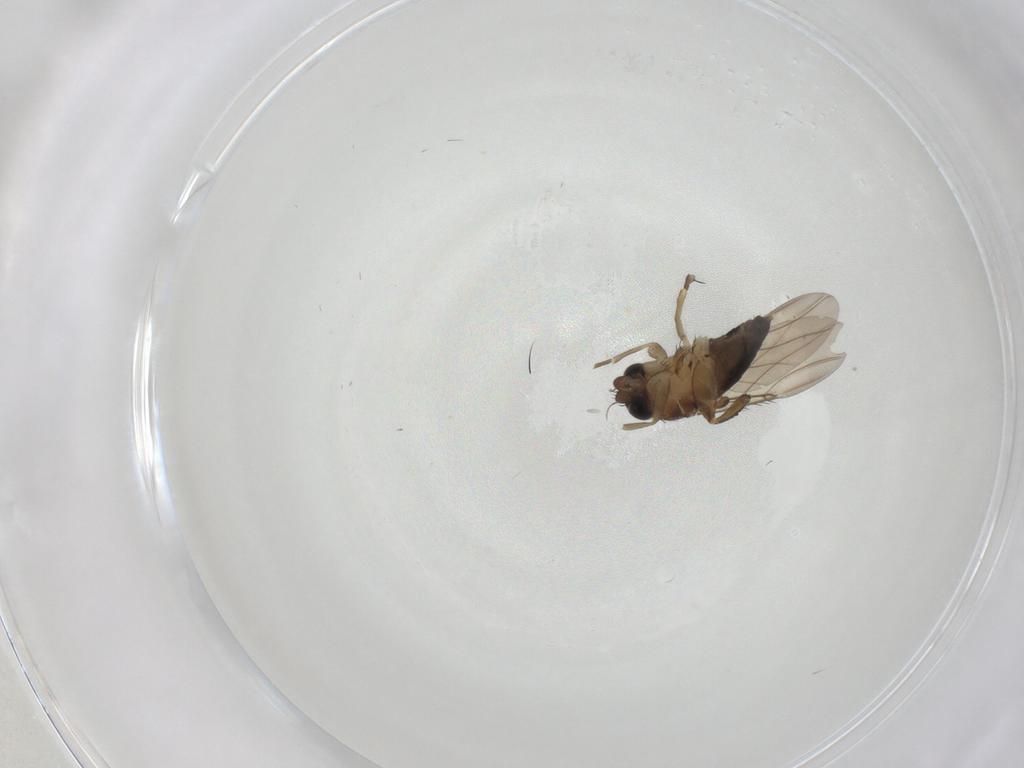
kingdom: Animalia
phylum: Arthropoda
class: Insecta
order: Diptera
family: Phoridae
